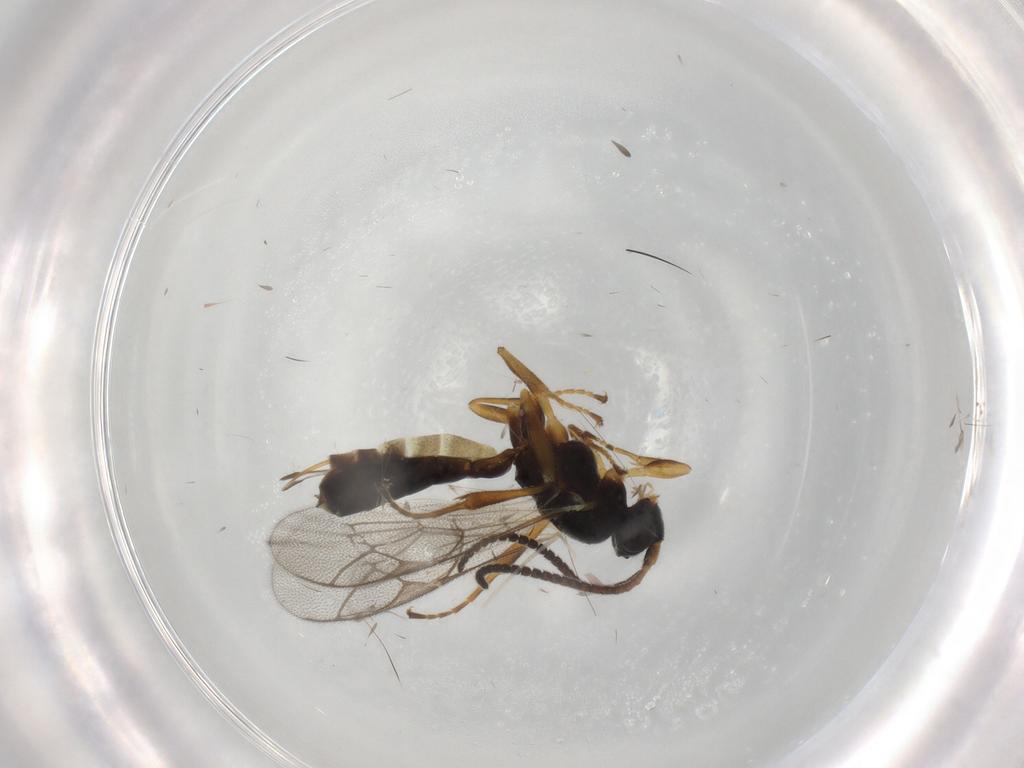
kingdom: Animalia
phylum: Arthropoda
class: Insecta
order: Hymenoptera
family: Ichneumonidae
